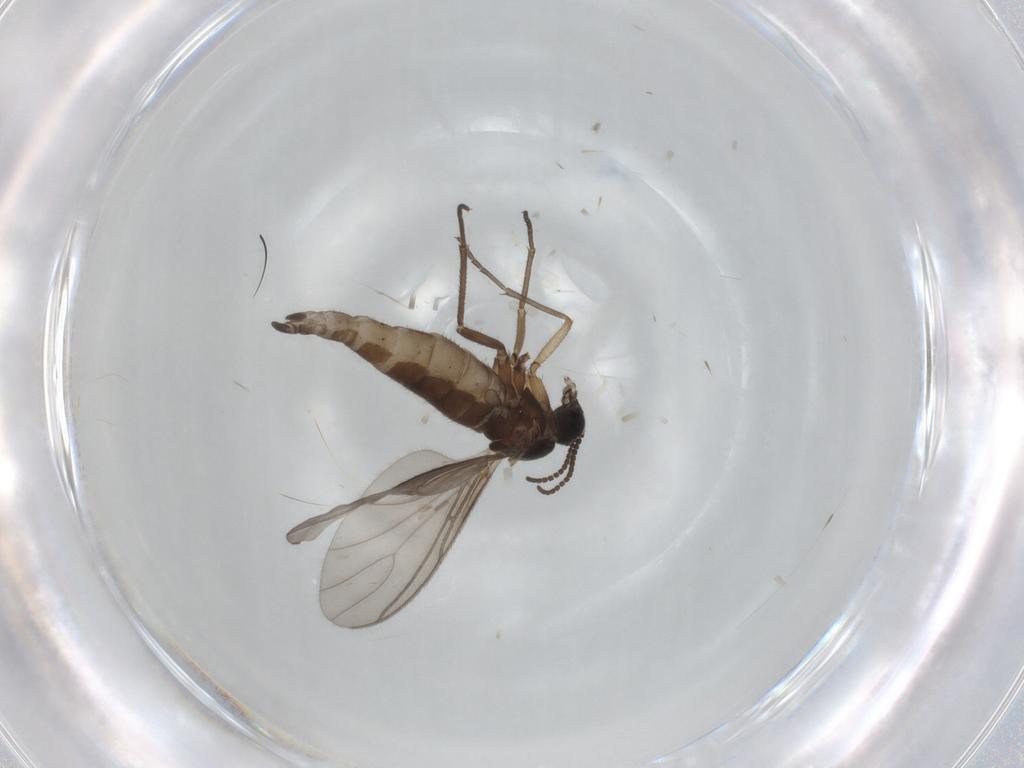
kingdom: Animalia
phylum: Arthropoda
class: Insecta
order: Diptera
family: Sciaridae
